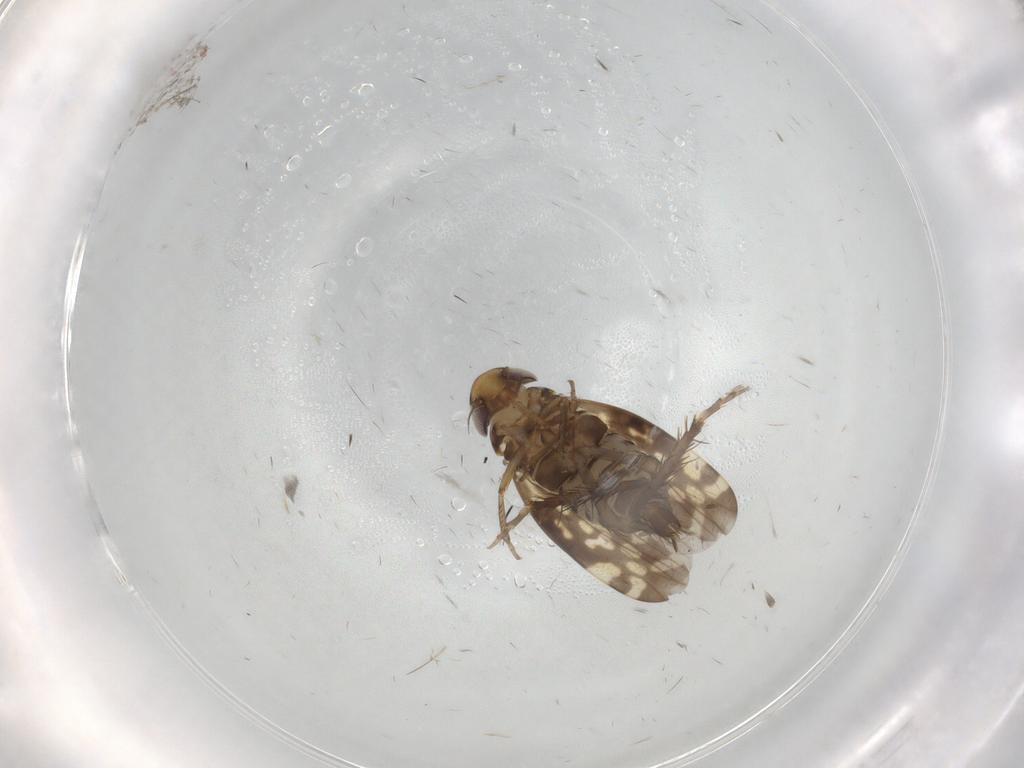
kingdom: Animalia
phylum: Arthropoda
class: Insecta
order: Hemiptera
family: Cicadellidae
